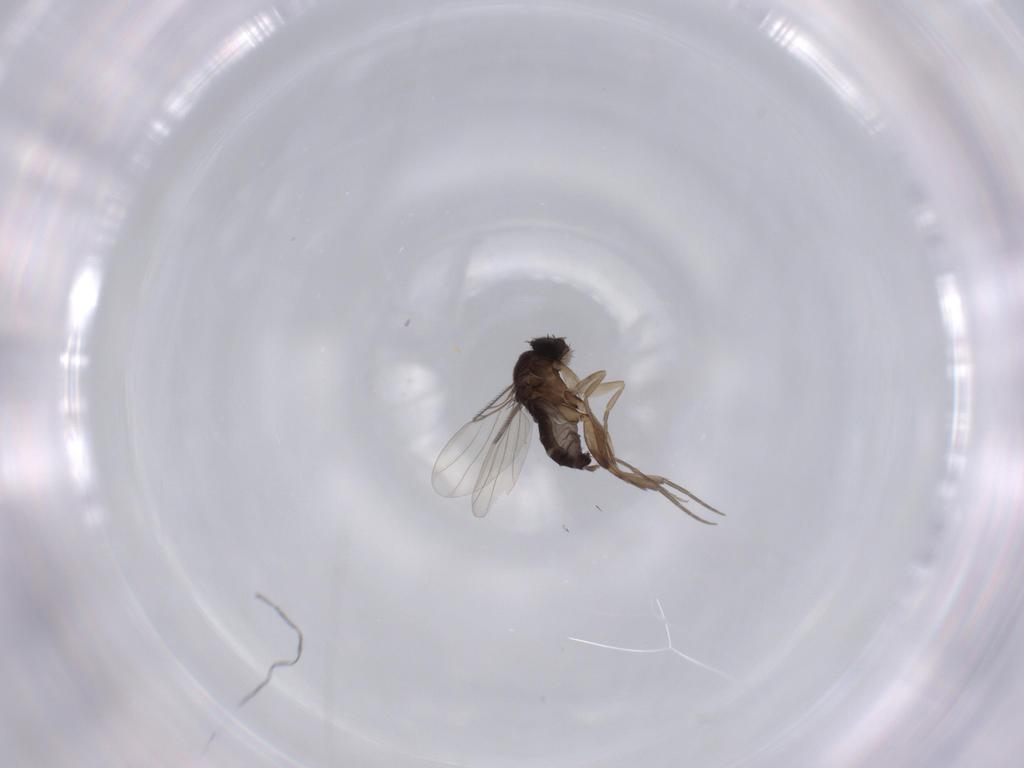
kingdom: Animalia
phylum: Arthropoda
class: Insecta
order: Diptera
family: Phoridae
